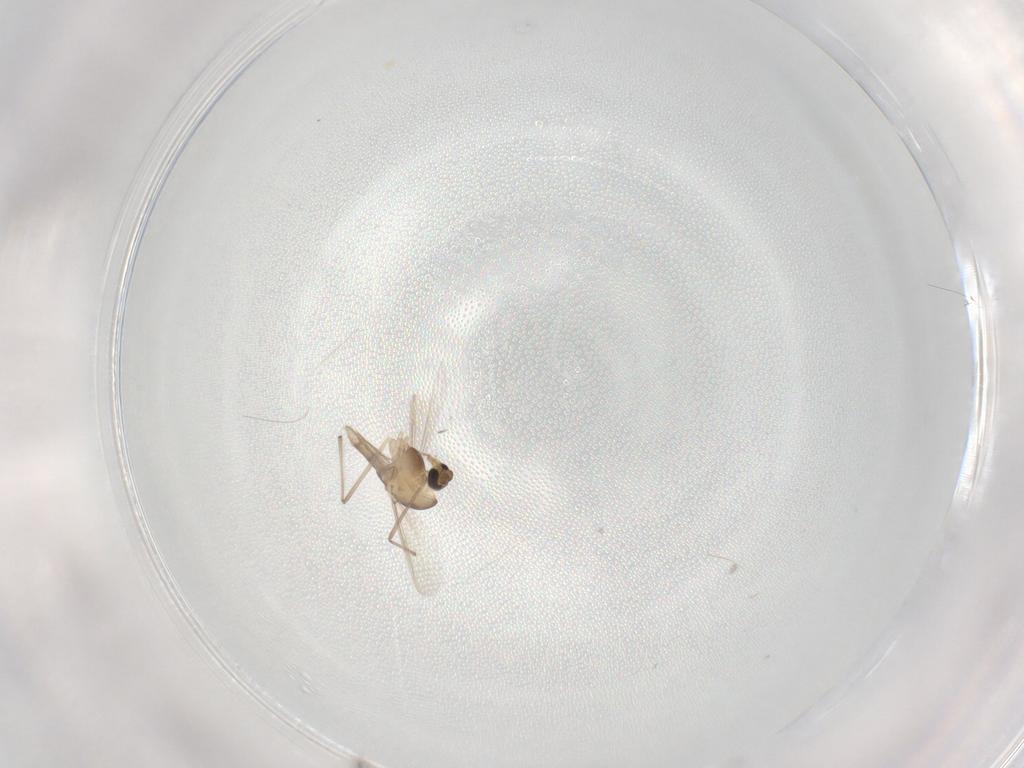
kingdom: Animalia
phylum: Arthropoda
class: Insecta
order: Diptera
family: Chironomidae
